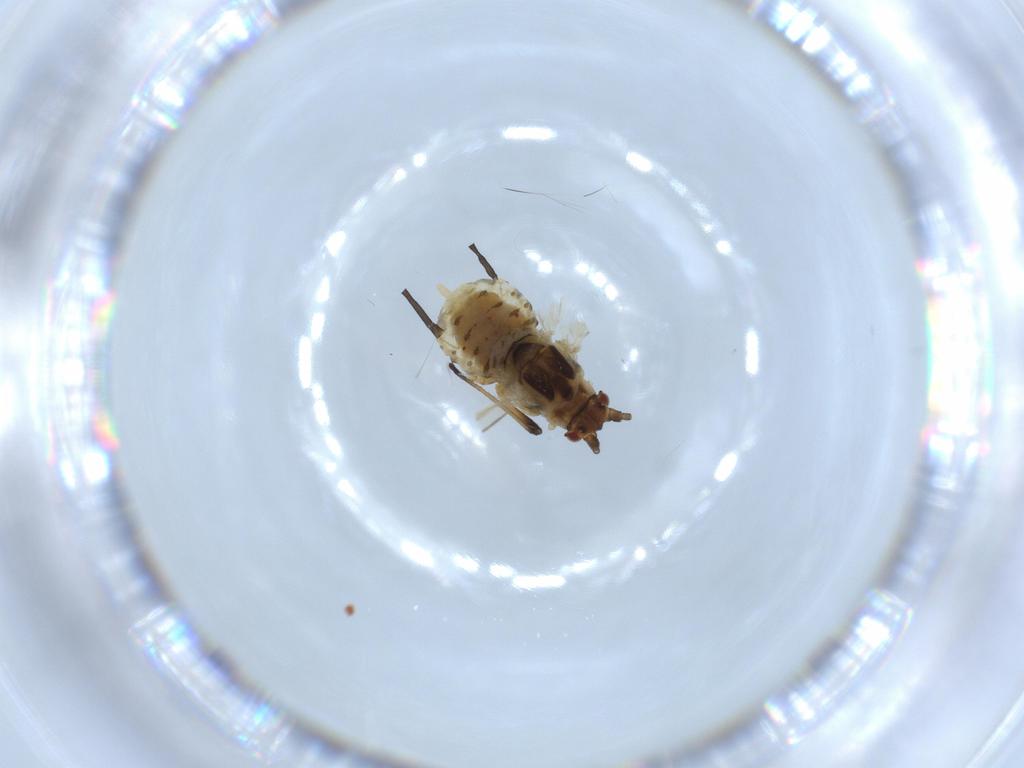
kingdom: Animalia
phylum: Arthropoda
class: Insecta
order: Hemiptera
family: Aphididae
